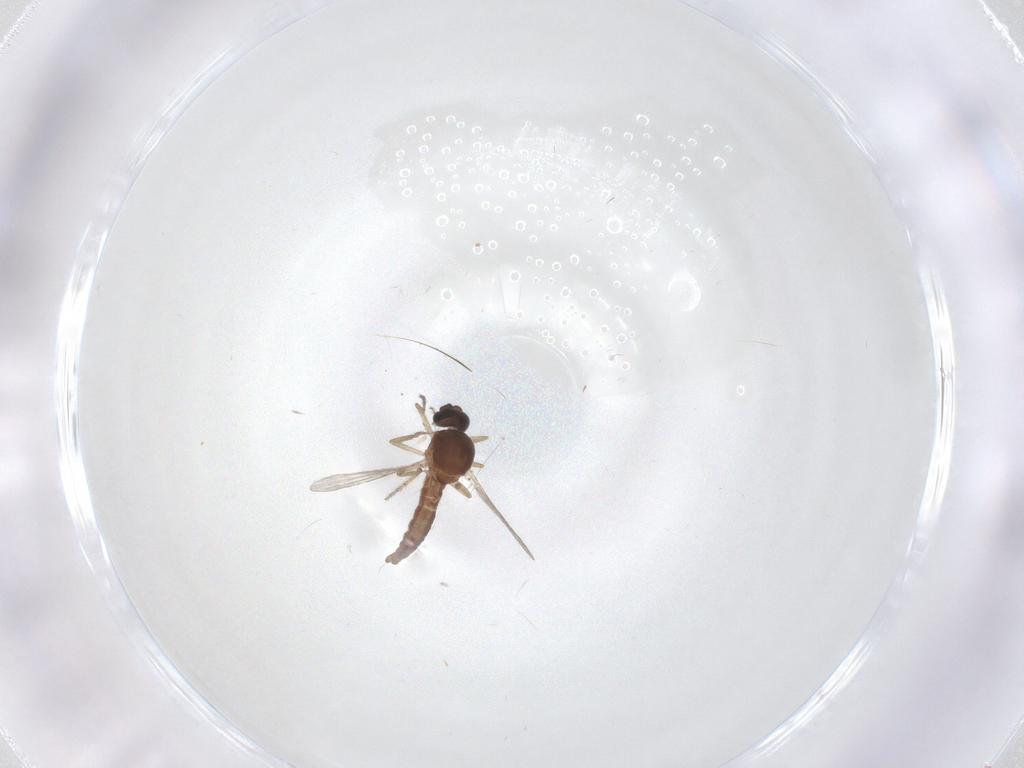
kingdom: Animalia
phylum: Arthropoda
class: Insecta
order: Diptera
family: Ceratopogonidae
